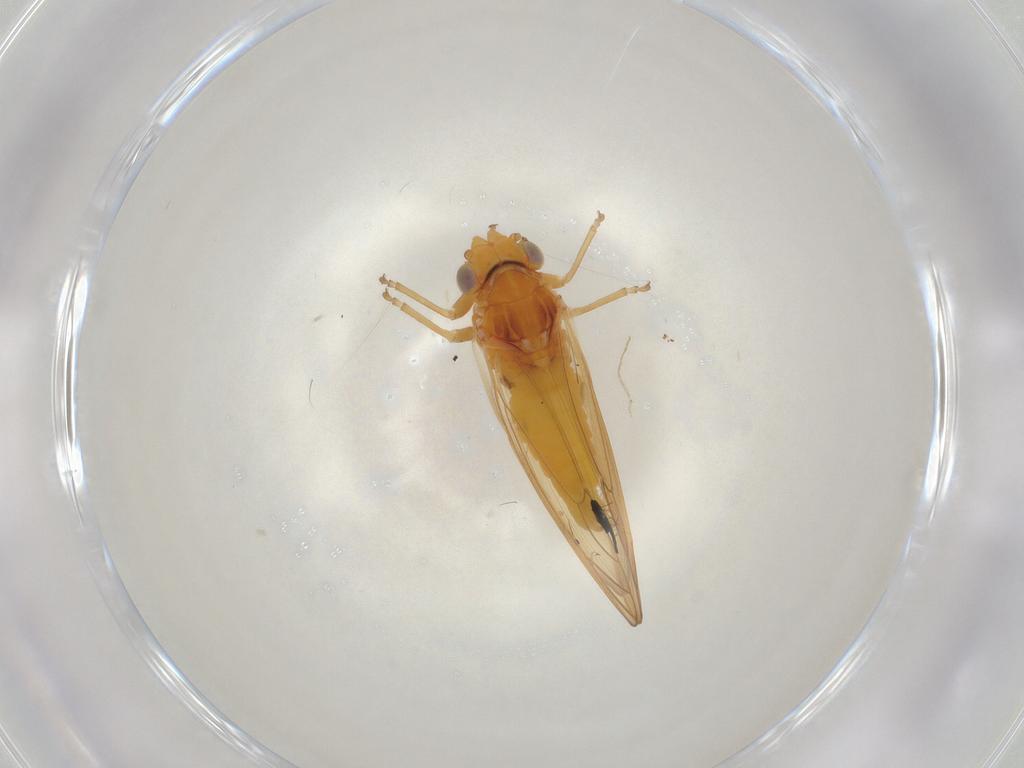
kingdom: Animalia
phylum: Arthropoda
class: Insecta
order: Hemiptera
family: Psylloidea_incertae_sedis
